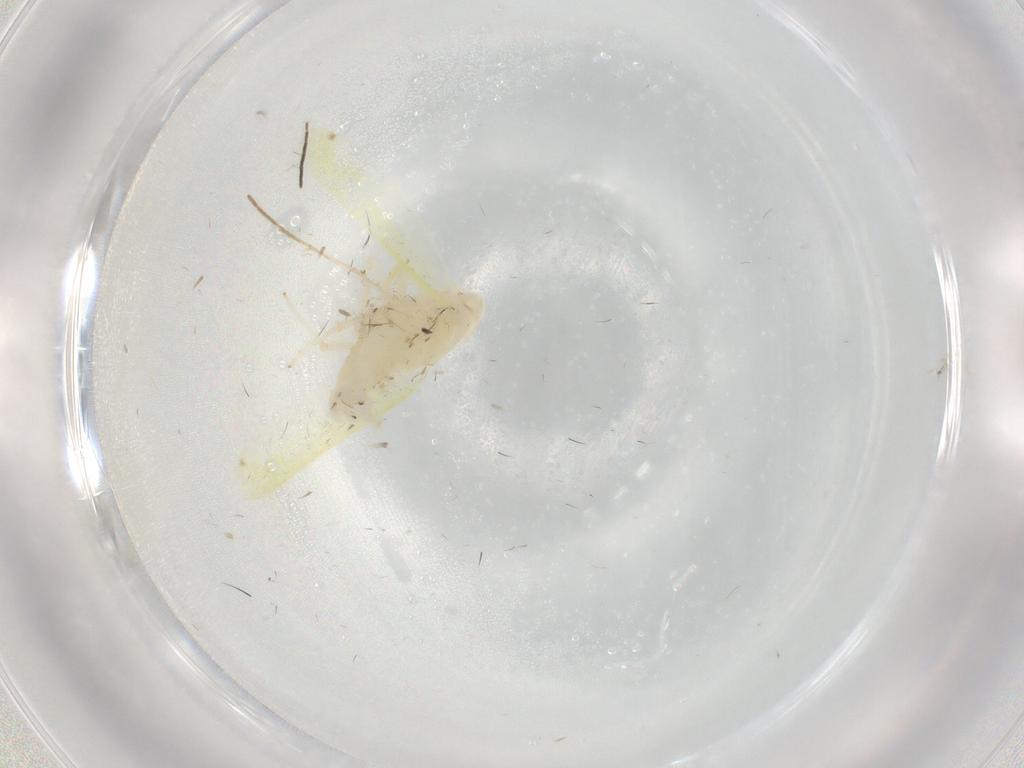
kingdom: Animalia
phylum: Arthropoda
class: Insecta
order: Hemiptera
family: Cicadellidae
